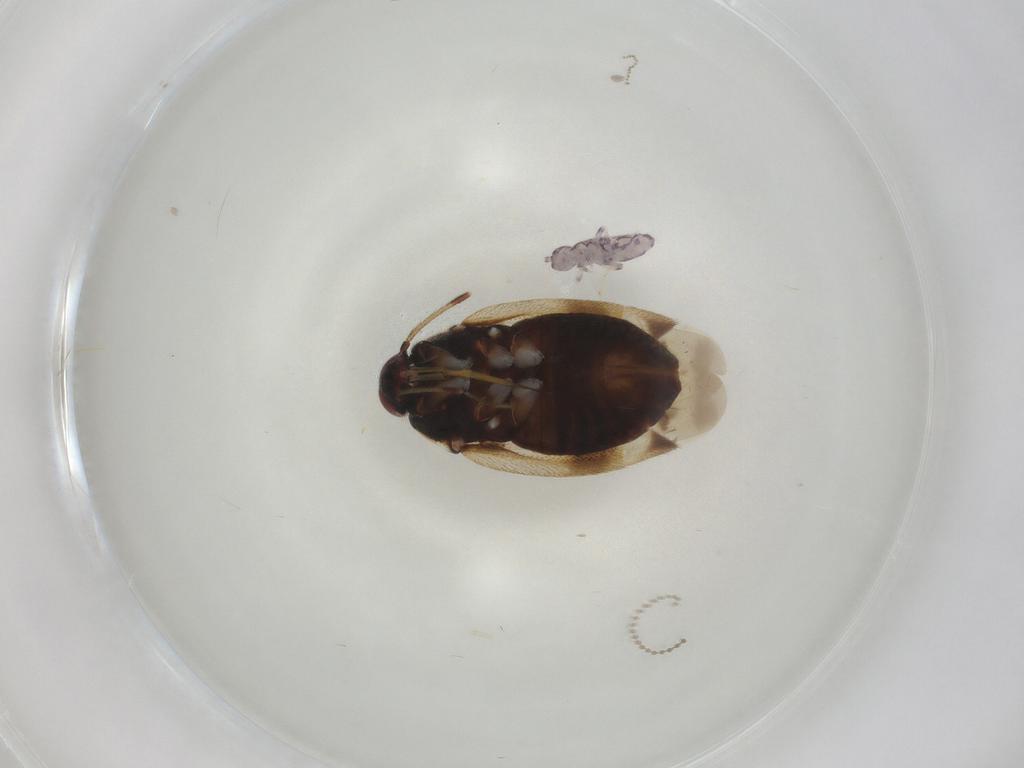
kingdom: Animalia
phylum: Arthropoda
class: Insecta
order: Hemiptera
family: Miridae
